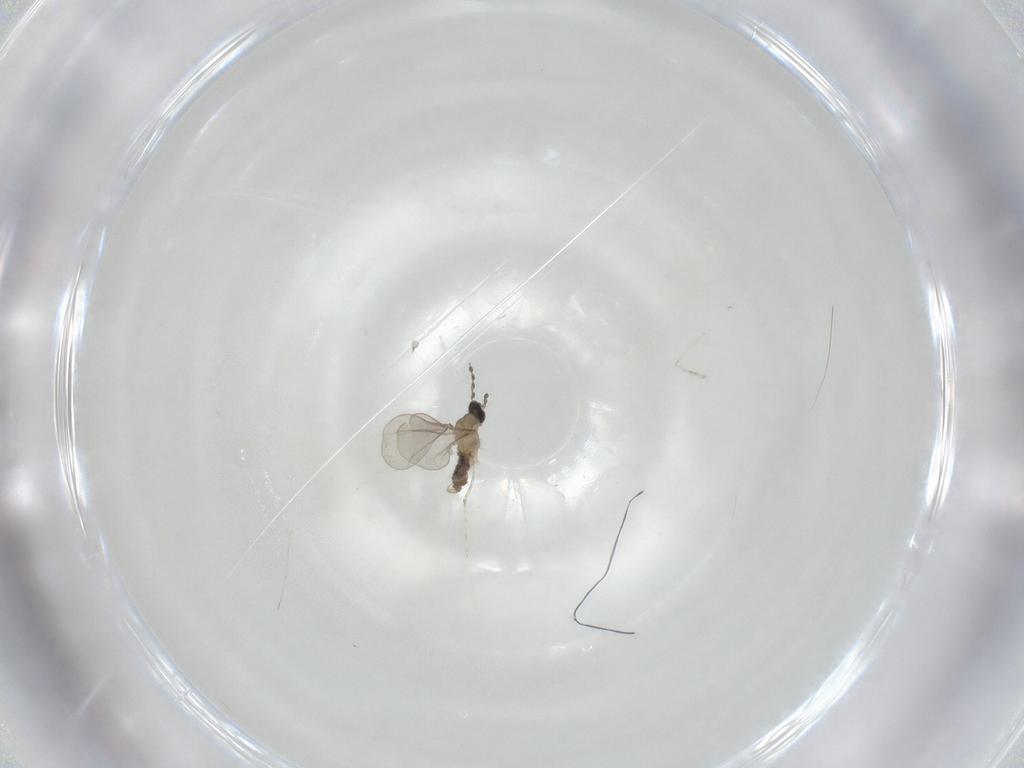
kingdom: Animalia
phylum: Arthropoda
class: Insecta
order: Diptera
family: Cecidomyiidae
